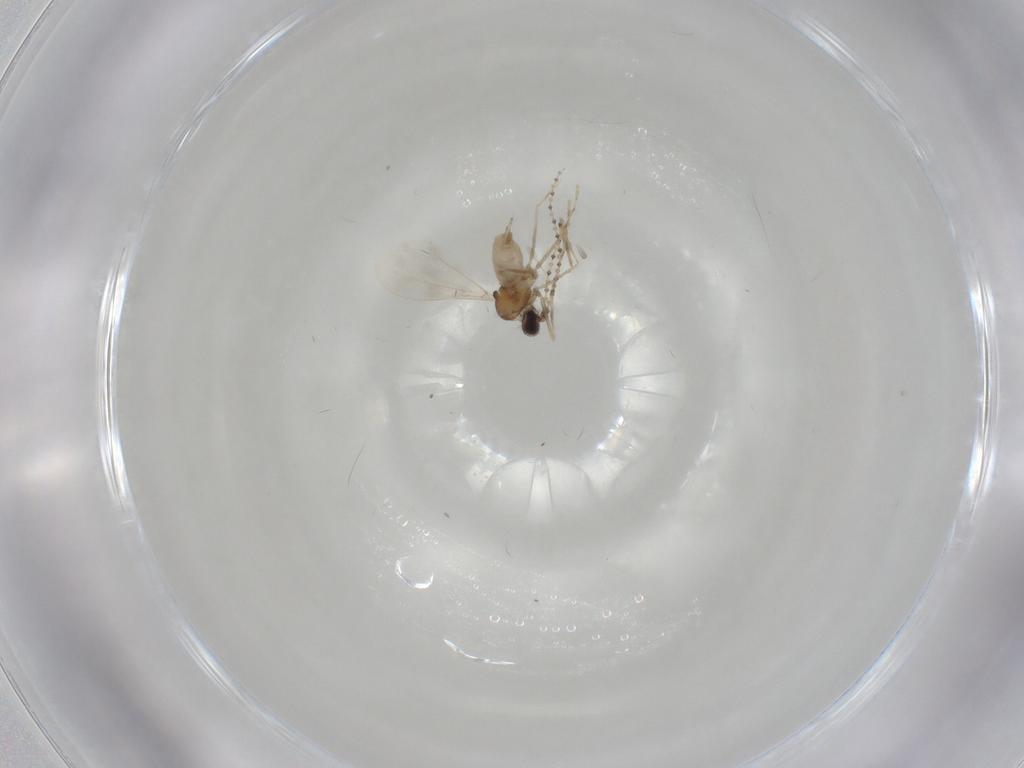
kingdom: Animalia
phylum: Arthropoda
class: Insecta
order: Diptera
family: Cecidomyiidae
